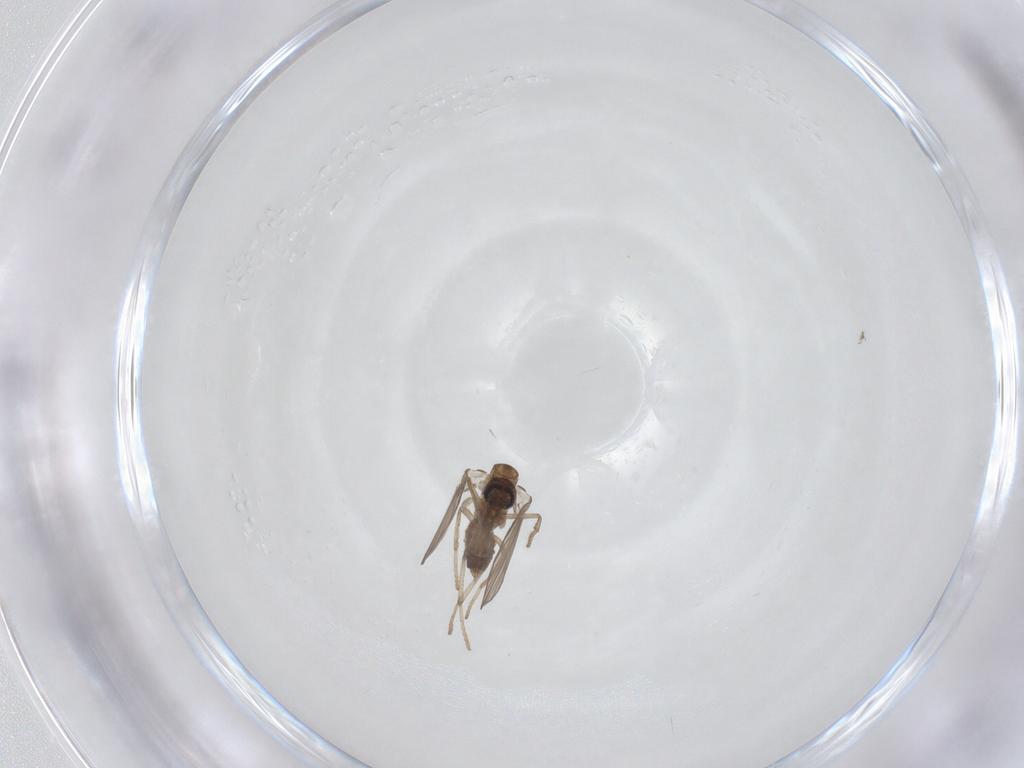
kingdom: Animalia
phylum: Arthropoda
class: Insecta
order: Diptera
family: Psychodidae
